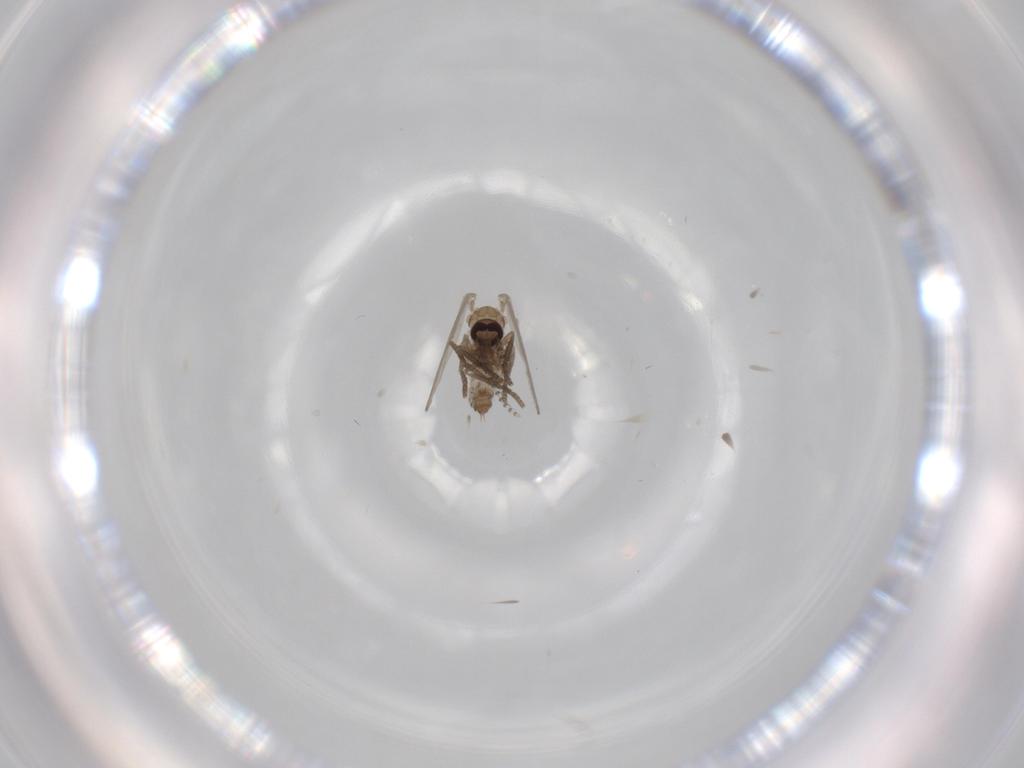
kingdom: Animalia
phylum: Arthropoda
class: Insecta
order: Diptera
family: Psychodidae
